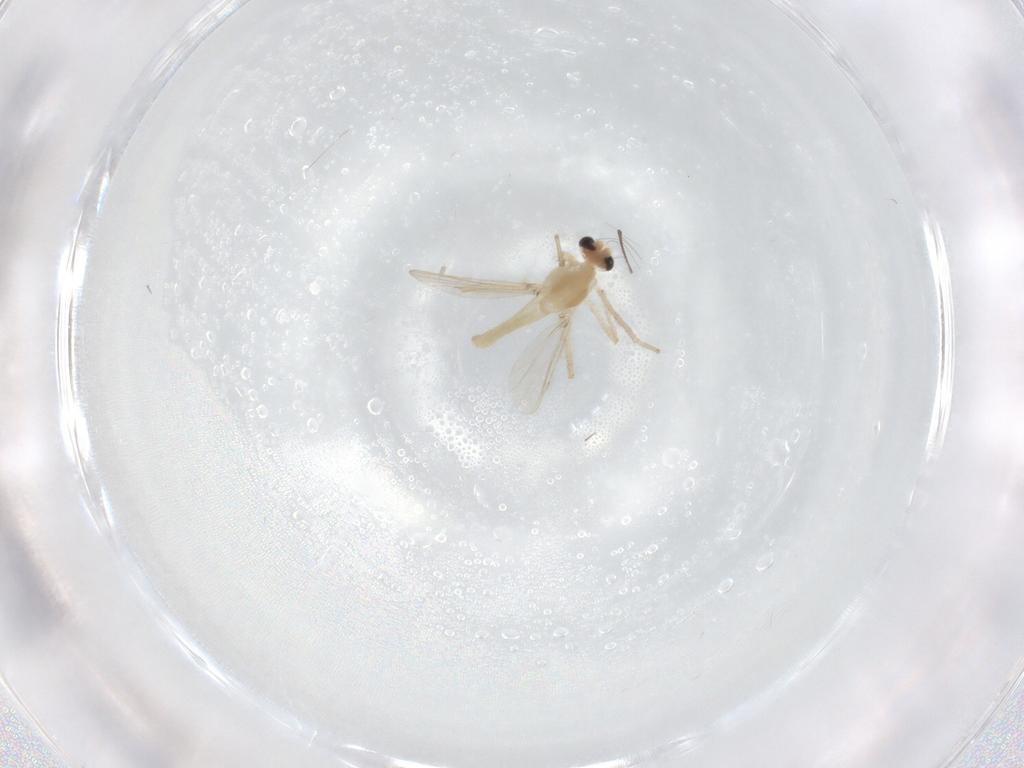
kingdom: Animalia
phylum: Arthropoda
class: Insecta
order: Diptera
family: Chironomidae
